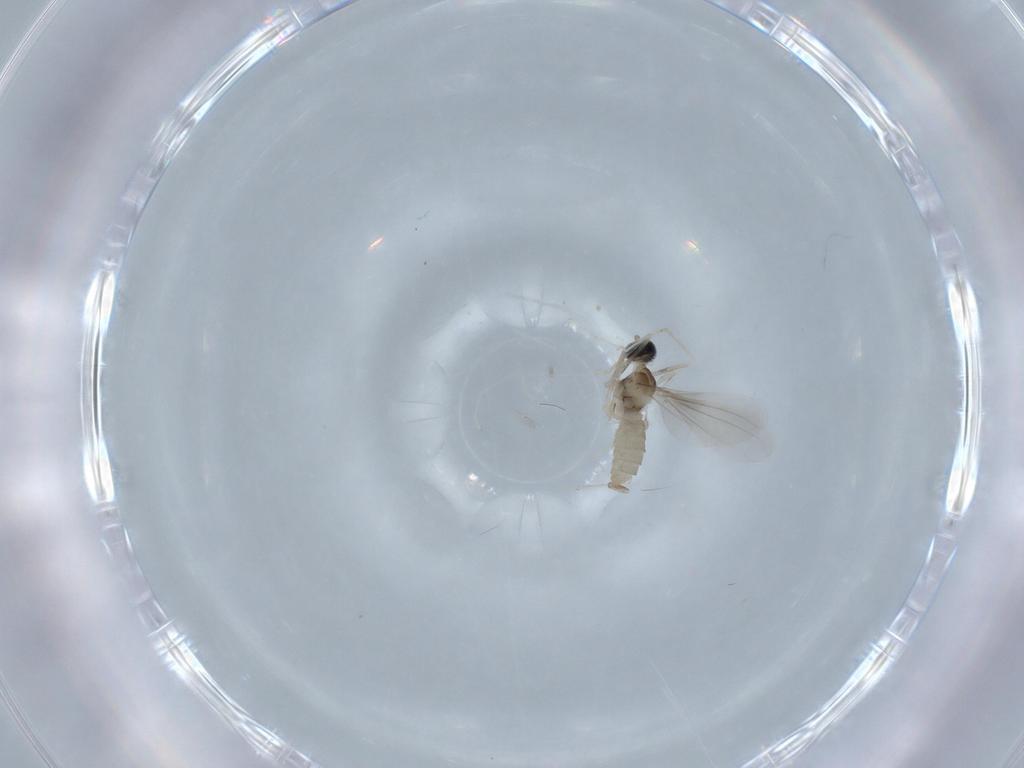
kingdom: Animalia
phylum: Arthropoda
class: Insecta
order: Diptera
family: Cecidomyiidae
